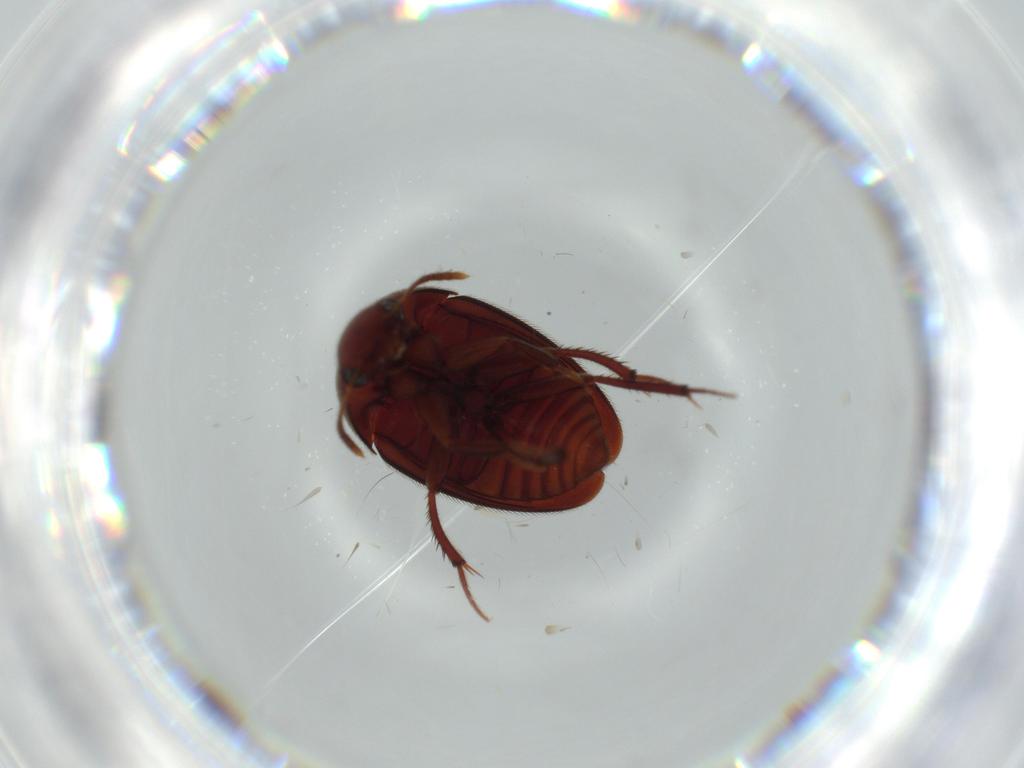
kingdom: Animalia
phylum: Arthropoda
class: Insecta
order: Coleoptera
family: Leiodidae
